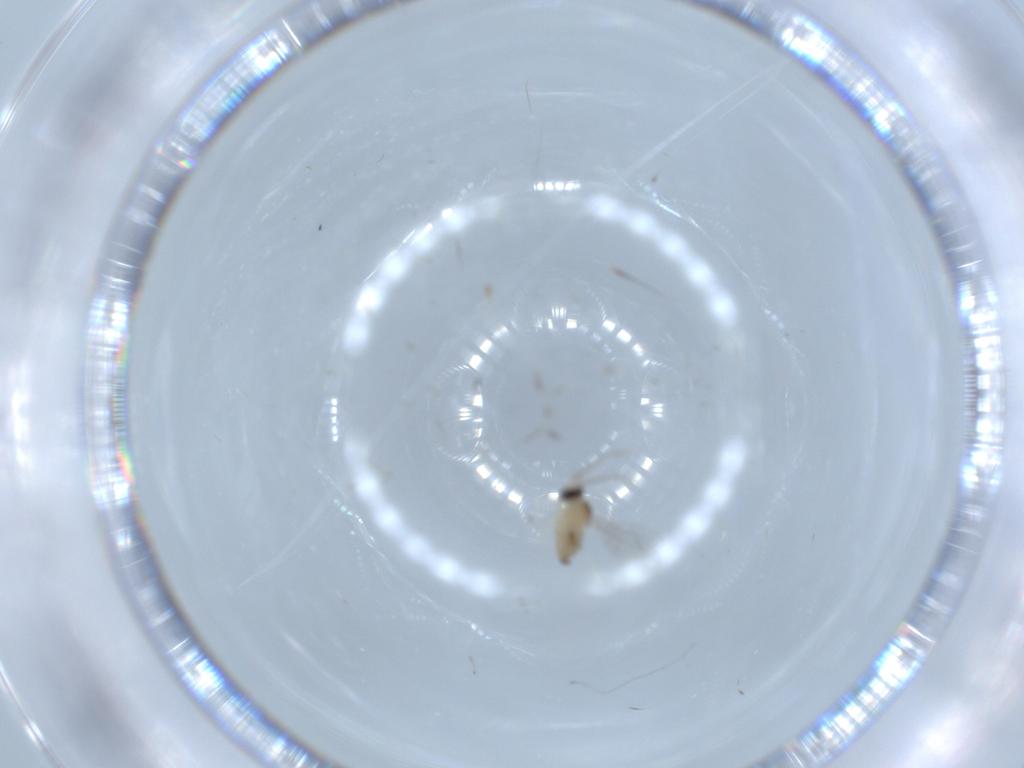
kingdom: Animalia
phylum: Arthropoda
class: Insecta
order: Diptera
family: Cecidomyiidae
